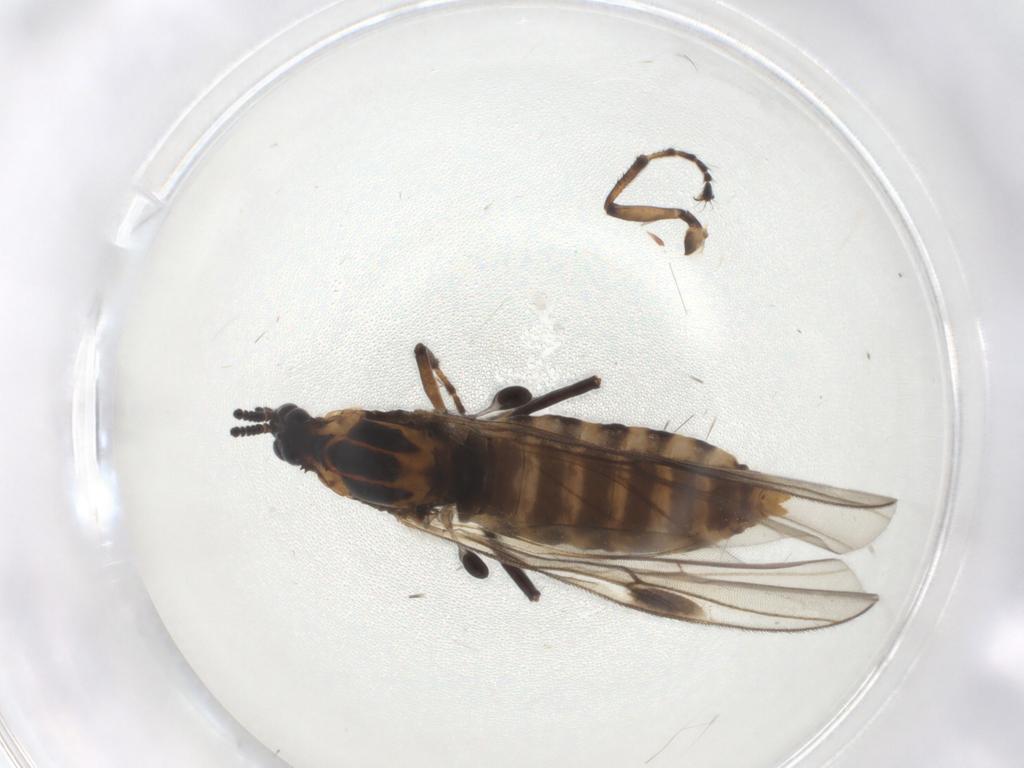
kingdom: Animalia
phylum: Arthropoda
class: Insecta
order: Diptera
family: Bibionidae
